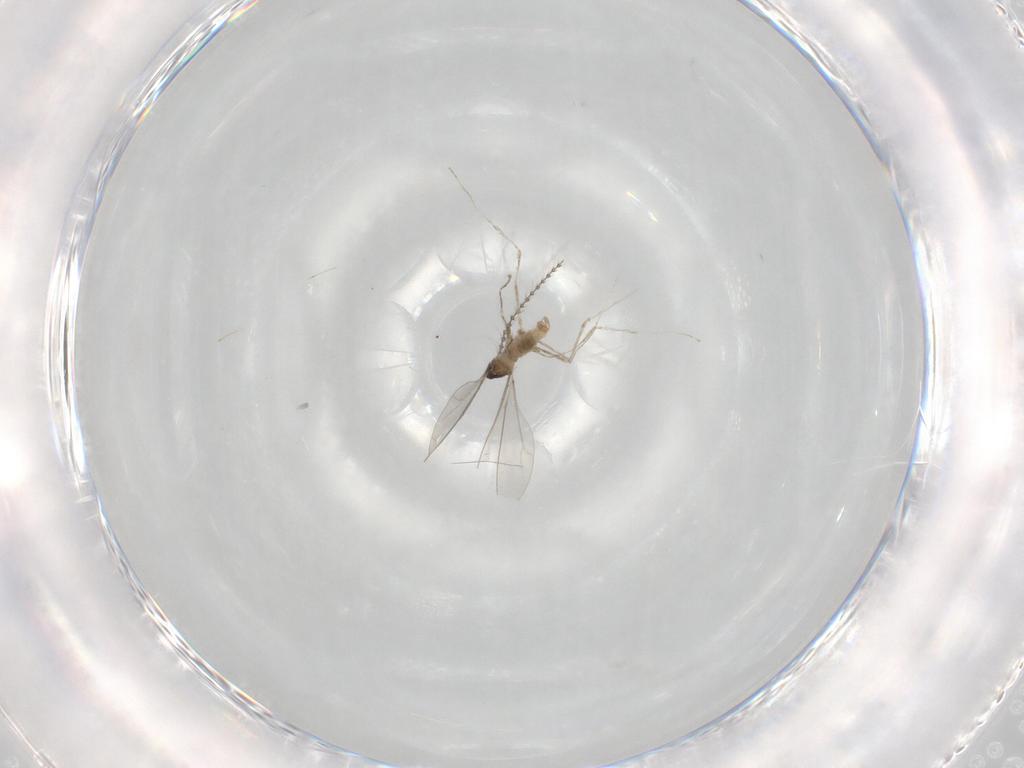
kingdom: Animalia
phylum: Arthropoda
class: Insecta
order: Diptera
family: Cecidomyiidae
